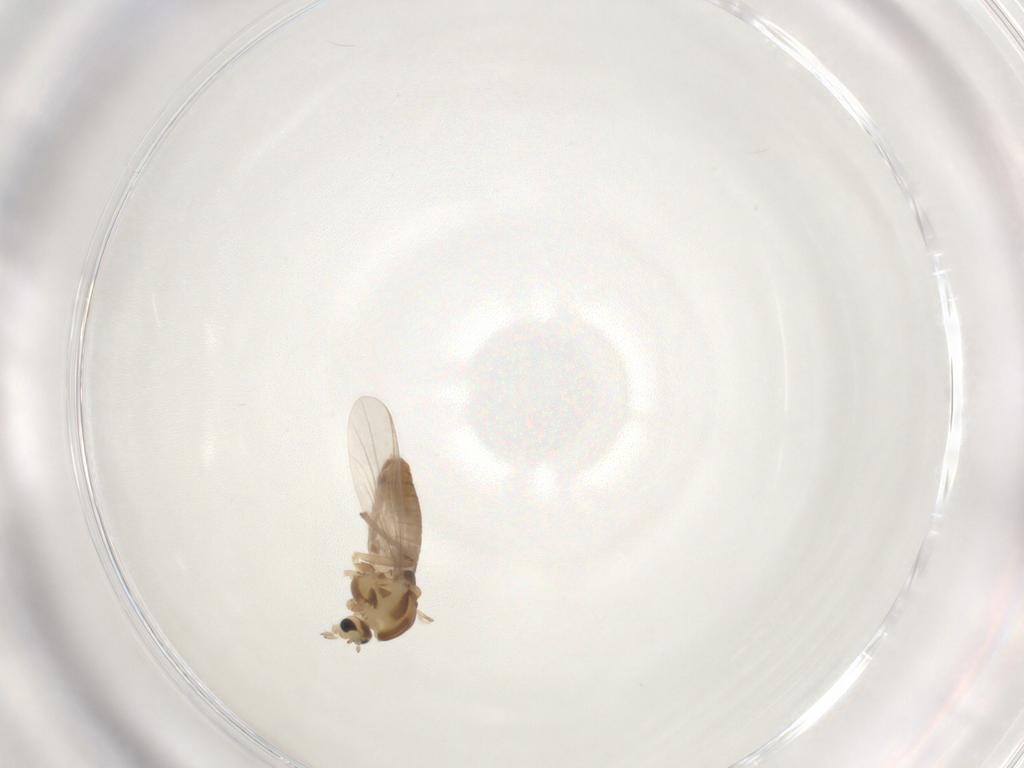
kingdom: Animalia
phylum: Arthropoda
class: Insecta
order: Diptera
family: Chironomidae
